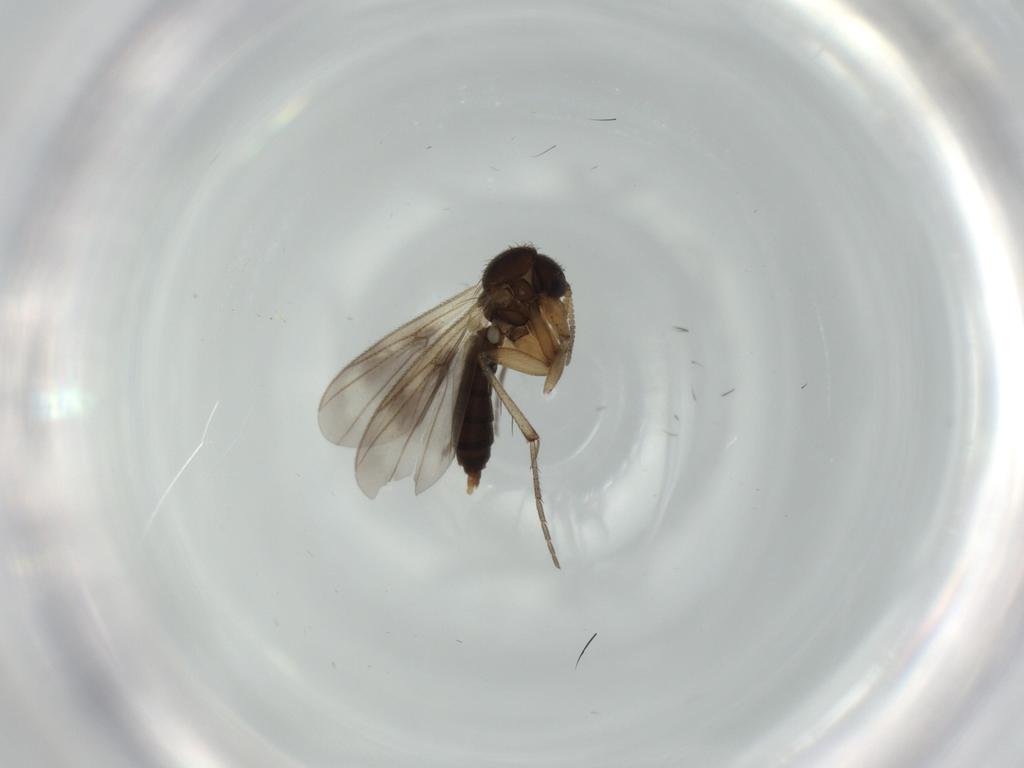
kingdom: Animalia
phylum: Arthropoda
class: Insecta
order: Diptera
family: Xylophagidae
